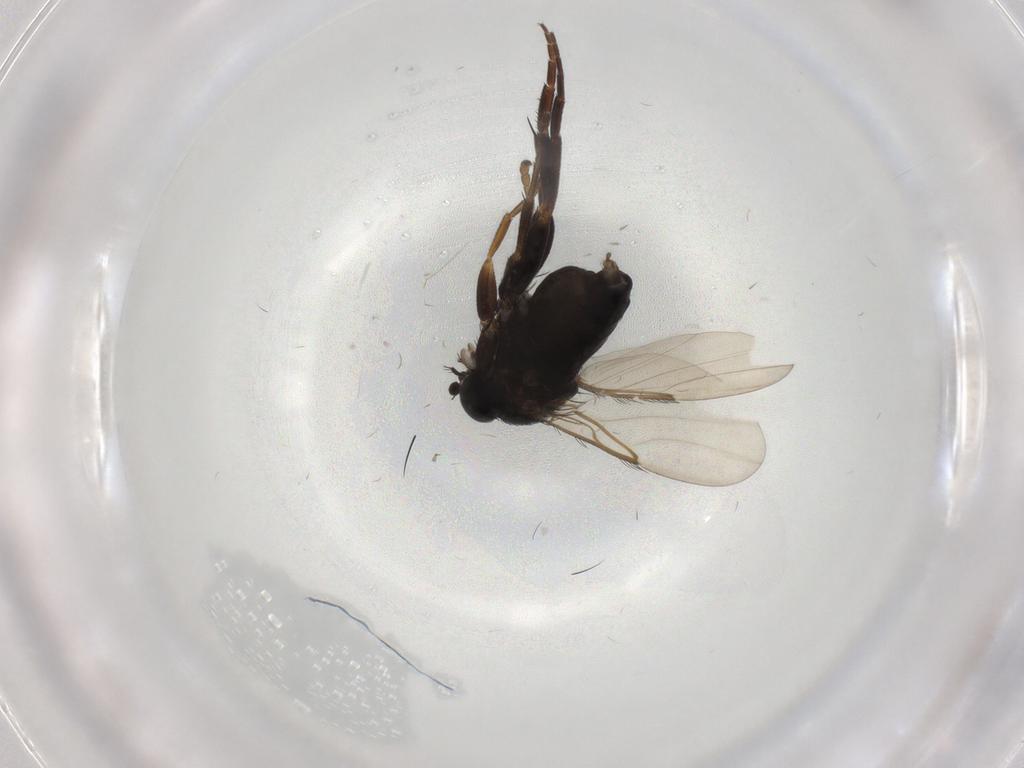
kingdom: Animalia
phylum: Arthropoda
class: Insecta
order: Diptera
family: Phoridae
